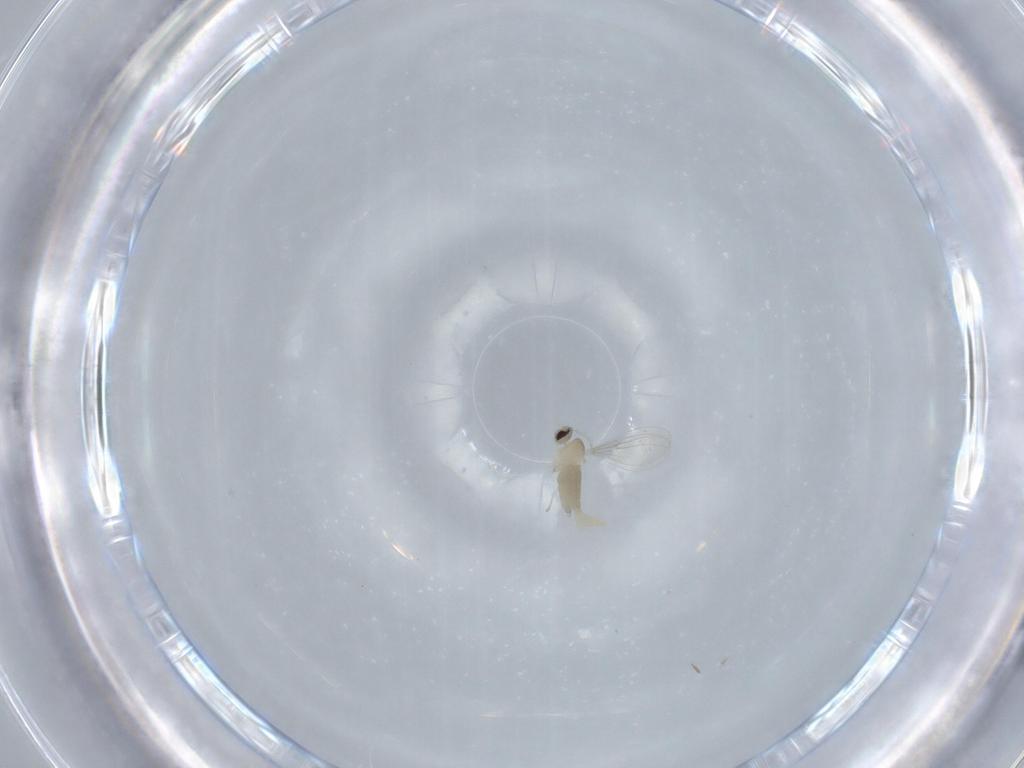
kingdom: Animalia
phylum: Arthropoda
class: Insecta
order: Diptera
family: Cecidomyiidae
